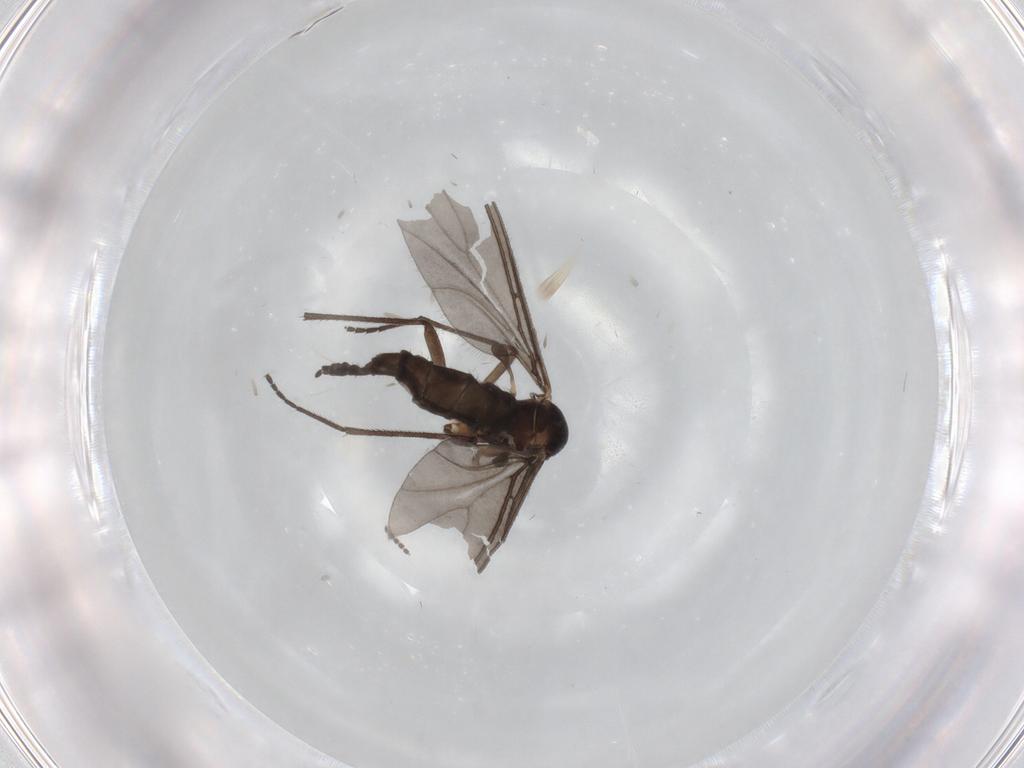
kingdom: Animalia
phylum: Arthropoda
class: Insecta
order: Diptera
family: Sciaridae
